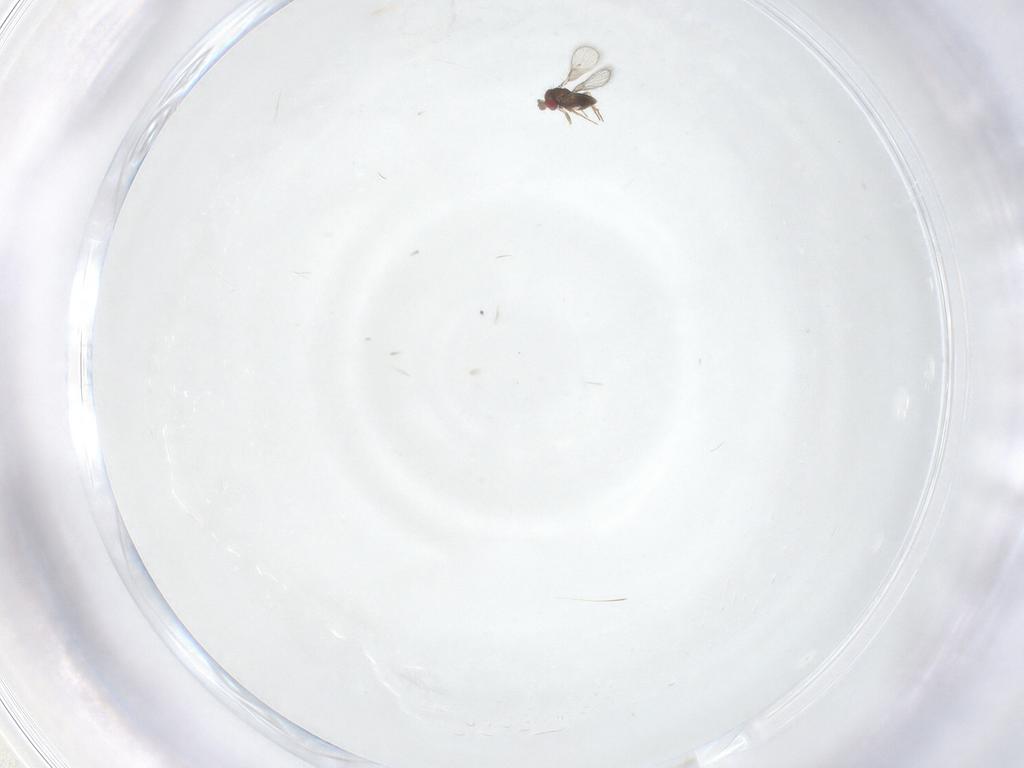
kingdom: Animalia
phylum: Arthropoda
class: Insecta
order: Hymenoptera
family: Trichogrammatidae
